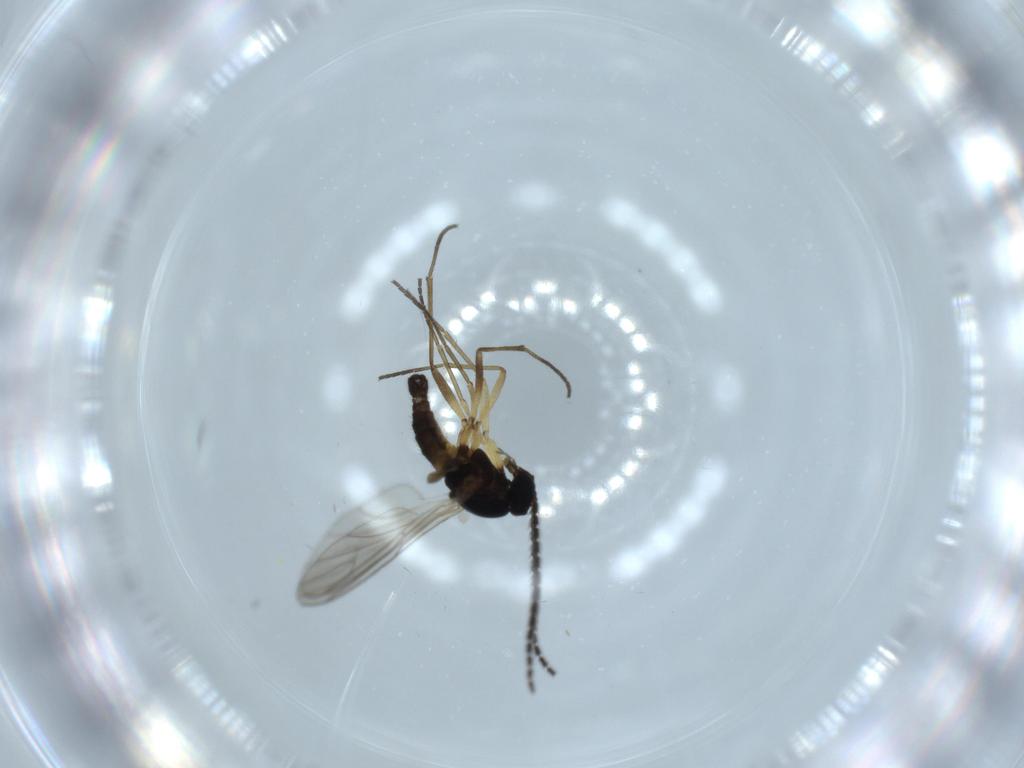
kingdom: Animalia
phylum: Arthropoda
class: Insecta
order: Diptera
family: Sciaridae
